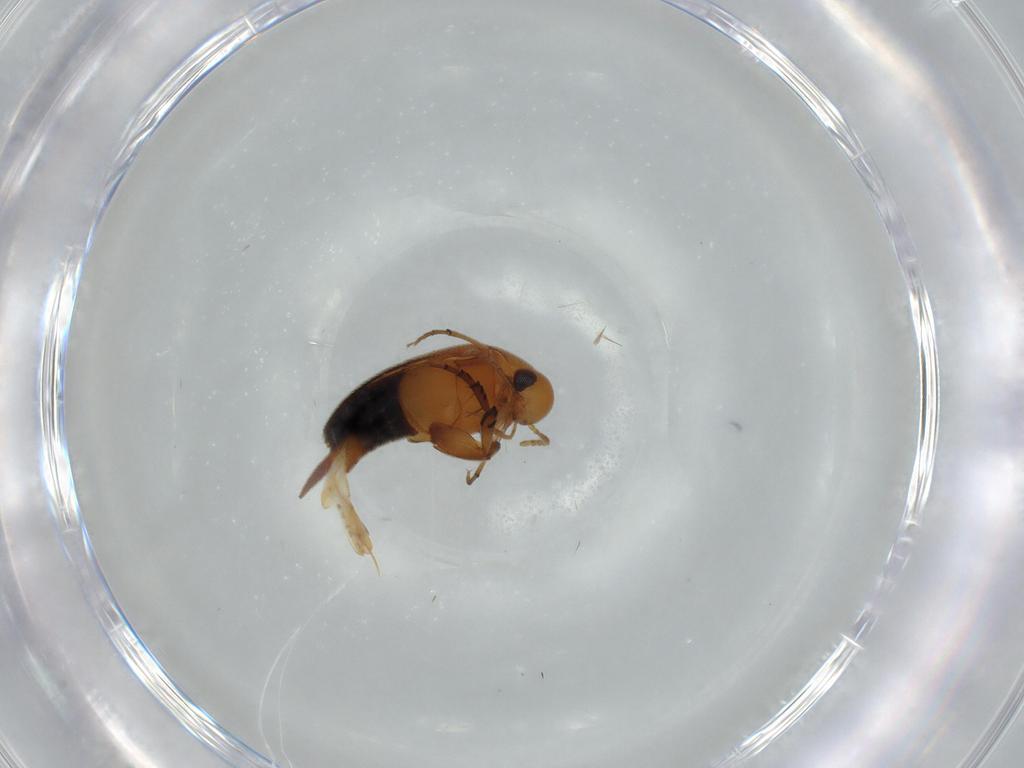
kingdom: Animalia
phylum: Arthropoda
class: Insecta
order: Coleoptera
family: Mordellidae
